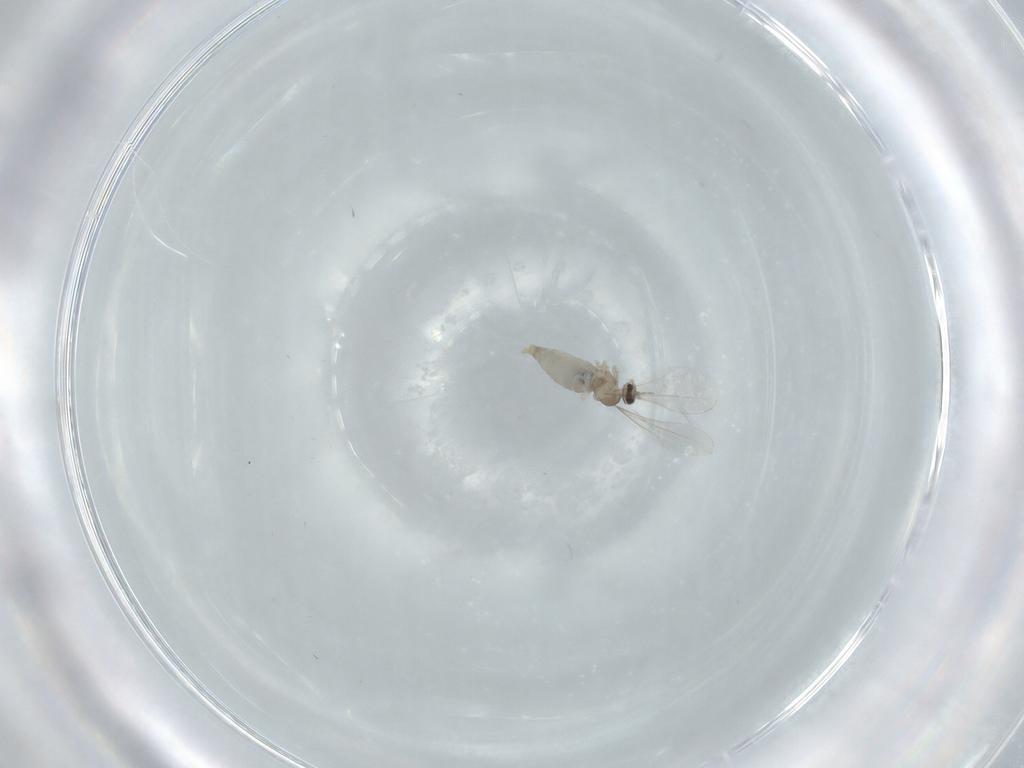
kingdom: Animalia
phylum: Arthropoda
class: Insecta
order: Diptera
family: Cecidomyiidae
